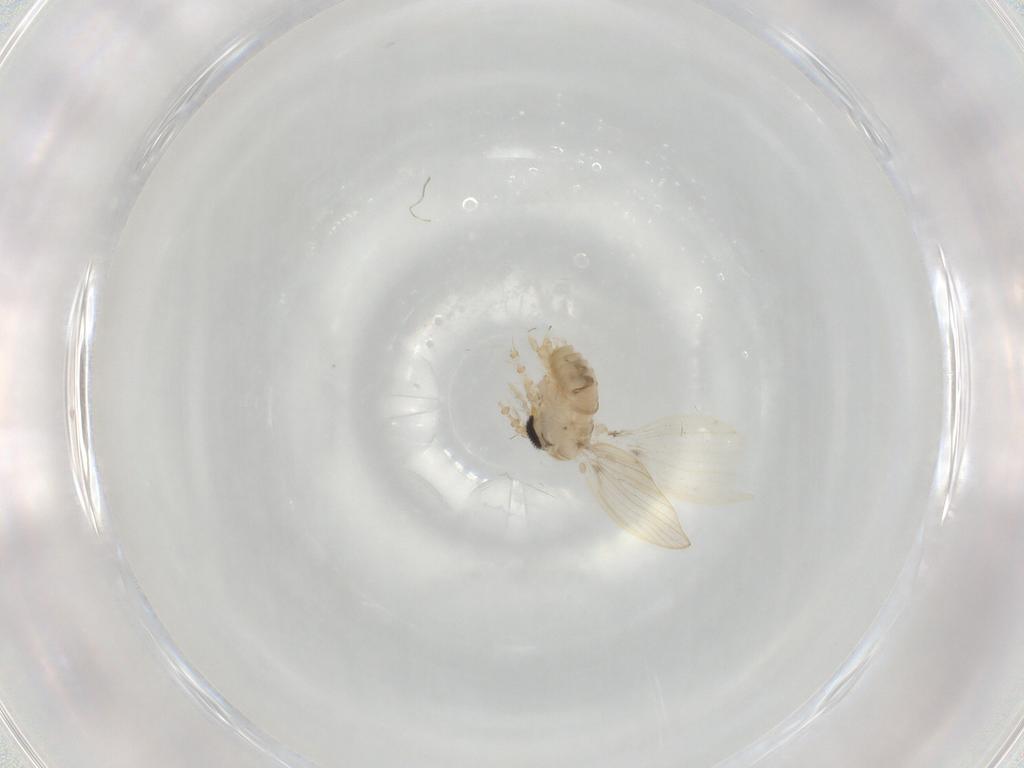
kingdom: Animalia
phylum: Arthropoda
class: Insecta
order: Diptera
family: Psychodidae
